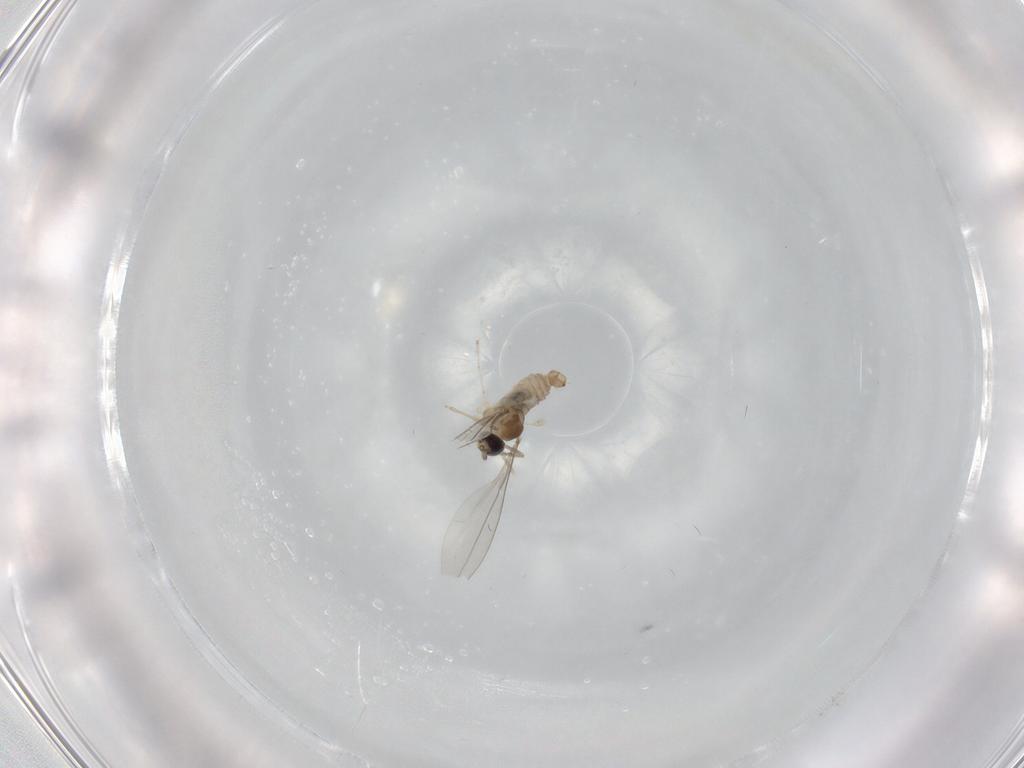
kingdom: Animalia
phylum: Arthropoda
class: Insecta
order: Diptera
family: Cecidomyiidae
